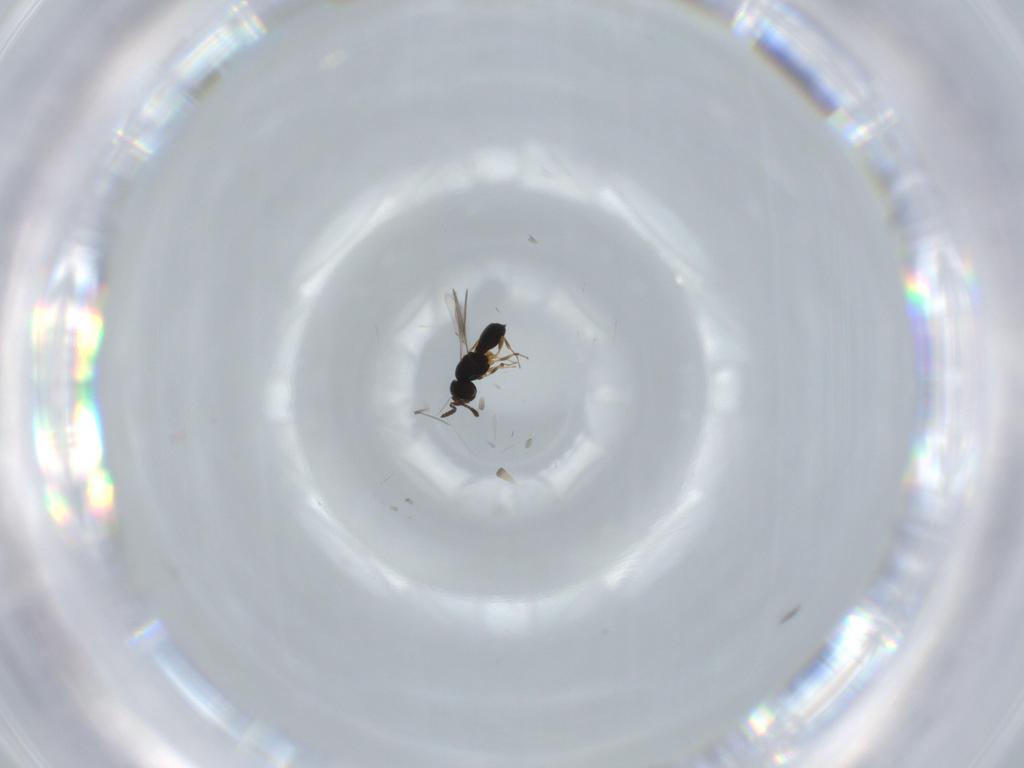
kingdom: Animalia
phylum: Arthropoda
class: Insecta
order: Hymenoptera
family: Scelionidae
